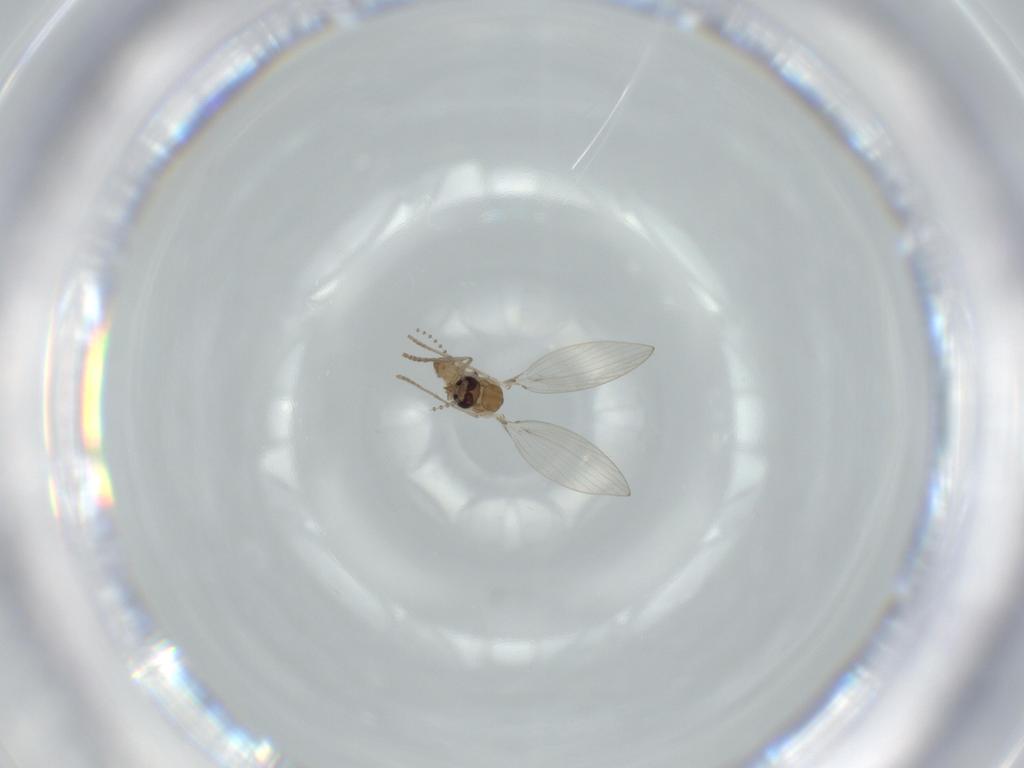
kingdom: Animalia
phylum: Arthropoda
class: Insecta
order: Diptera
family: Psychodidae
